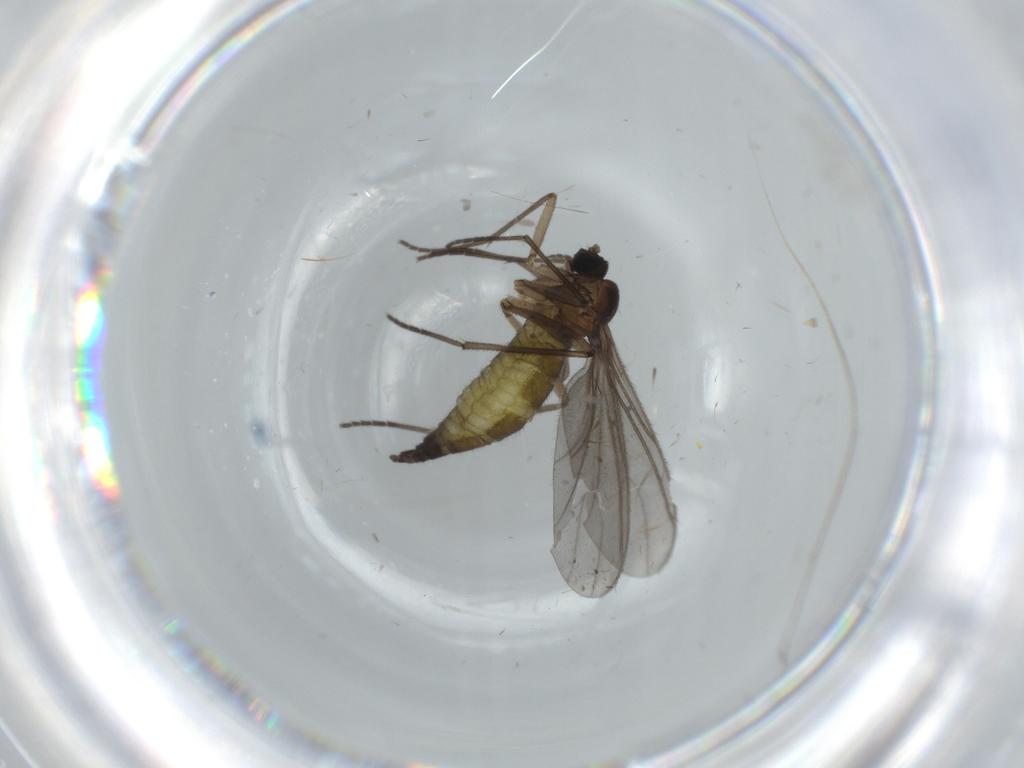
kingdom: Animalia
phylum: Arthropoda
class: Insecta
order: Diptera
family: Sciaridae
